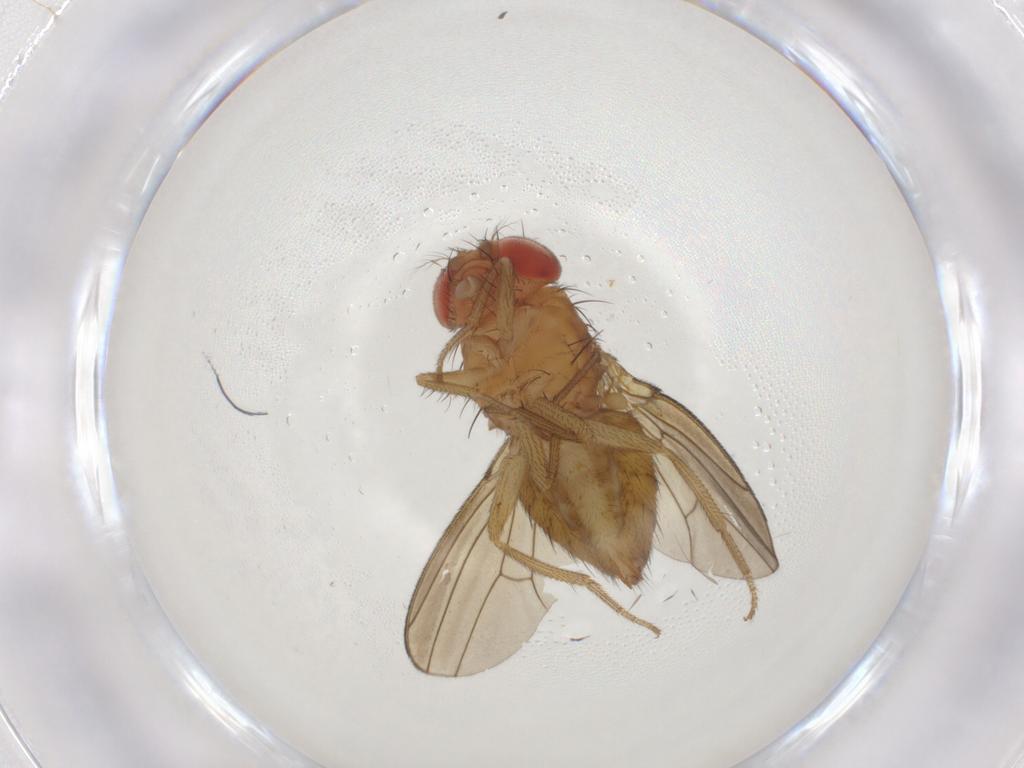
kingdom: Animalia
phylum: Arthropoda
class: Insecta
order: Diptera
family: Drosophilidae
